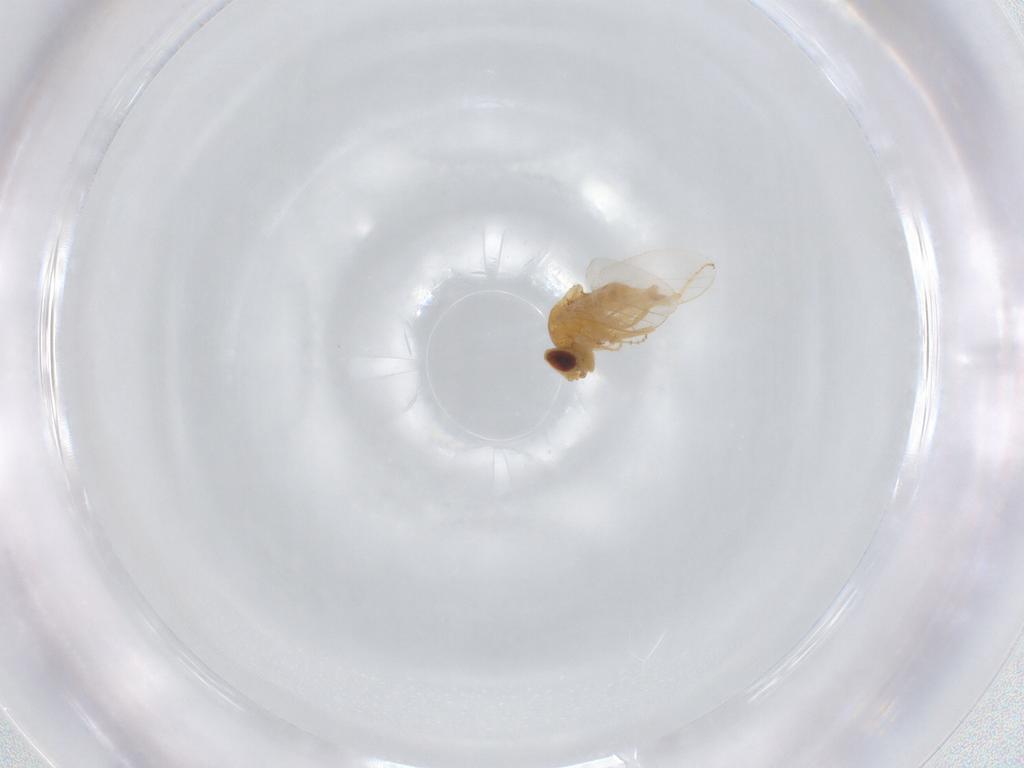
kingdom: Animalia
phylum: Arthropoda
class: Insecta
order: Diptera
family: Chloropidae
